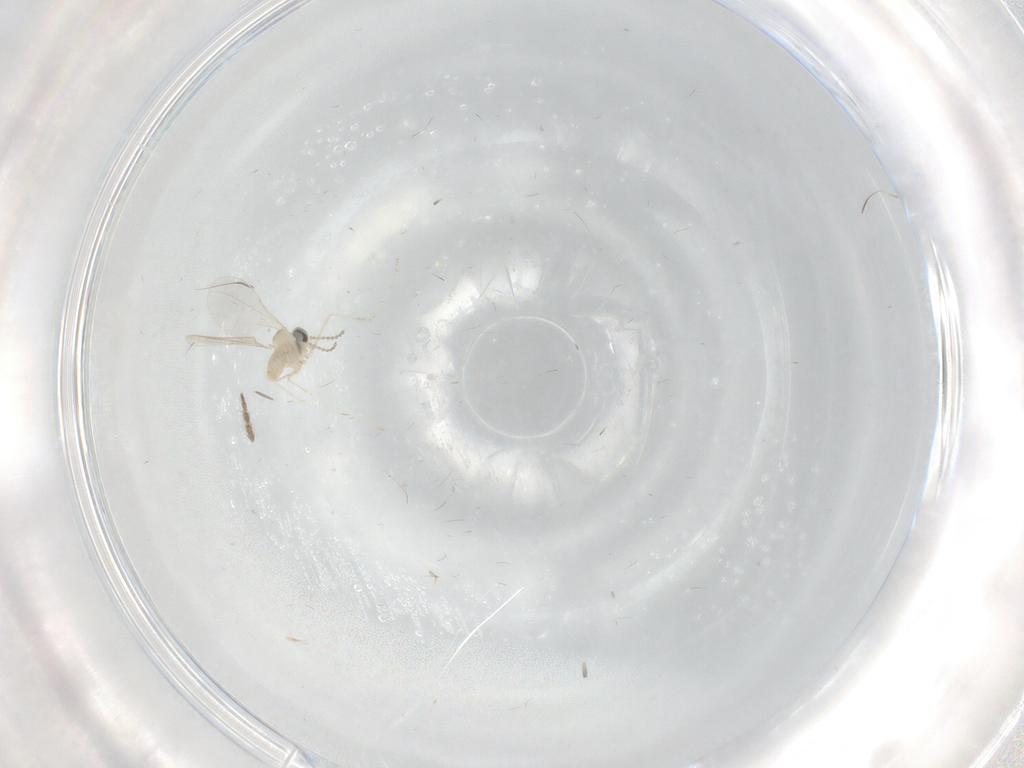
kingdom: Animalia
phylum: Arthropoda
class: Insecta
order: Diptera
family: Cecidomyiidae
